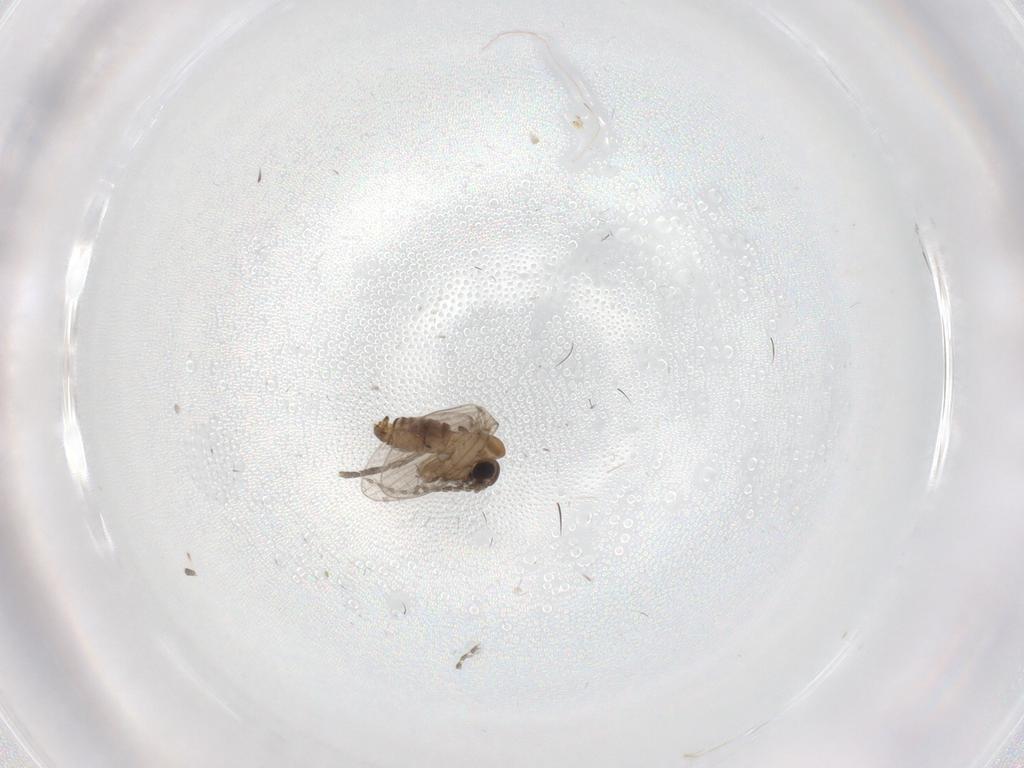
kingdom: Animalia
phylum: Arthropoda
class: Insecta
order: Diptera
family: Psychodidae
